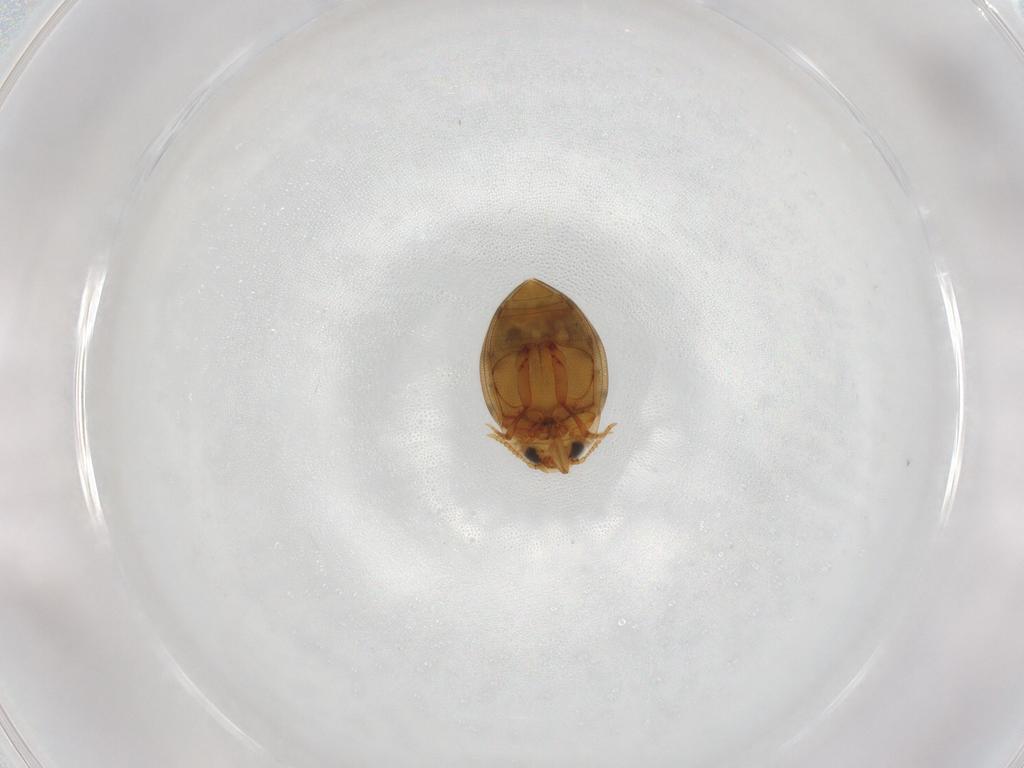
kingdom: Animalia
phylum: Arthropoda
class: Insecta
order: Coleoptera
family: Dytiscidae
